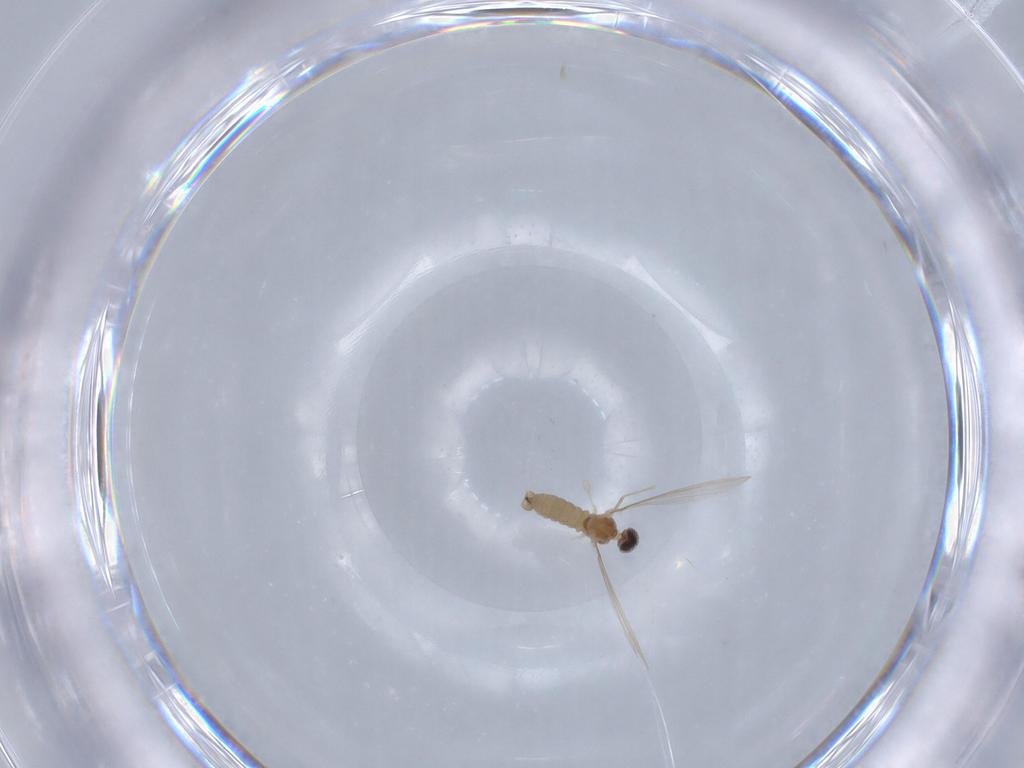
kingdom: Animalia
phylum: Arthropoda
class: Insecta
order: Diptera
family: Cecidomyiidae
